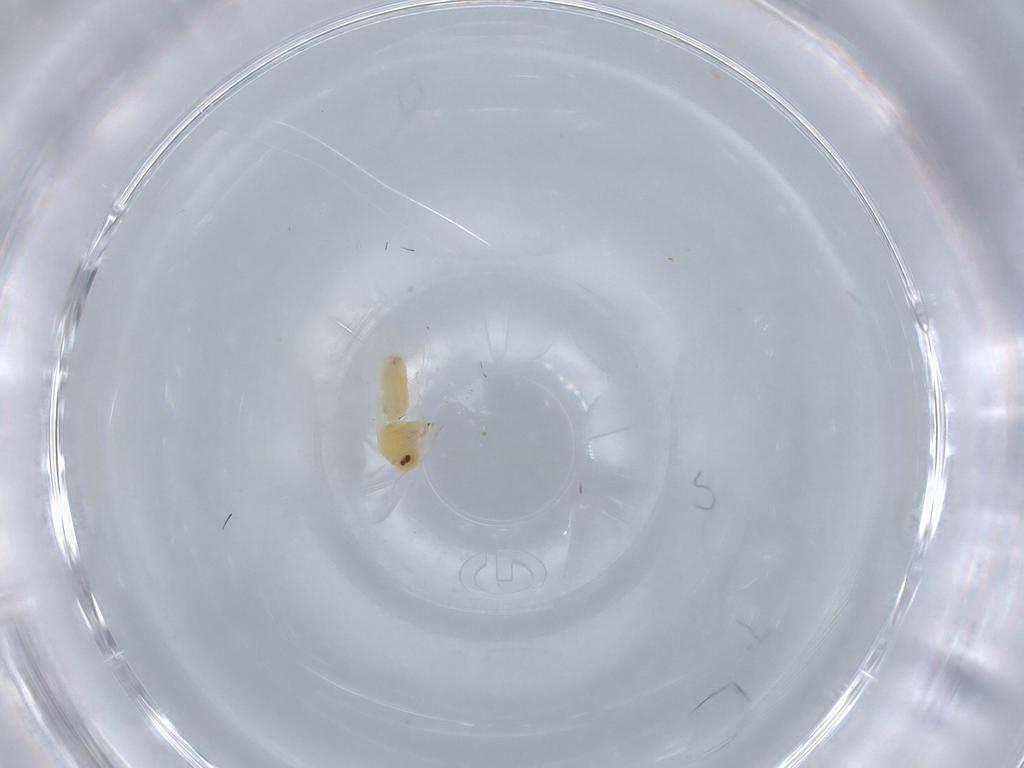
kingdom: Animalia
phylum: Arthropoda
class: Insecta
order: Hemiptera
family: Aleyrodidae
